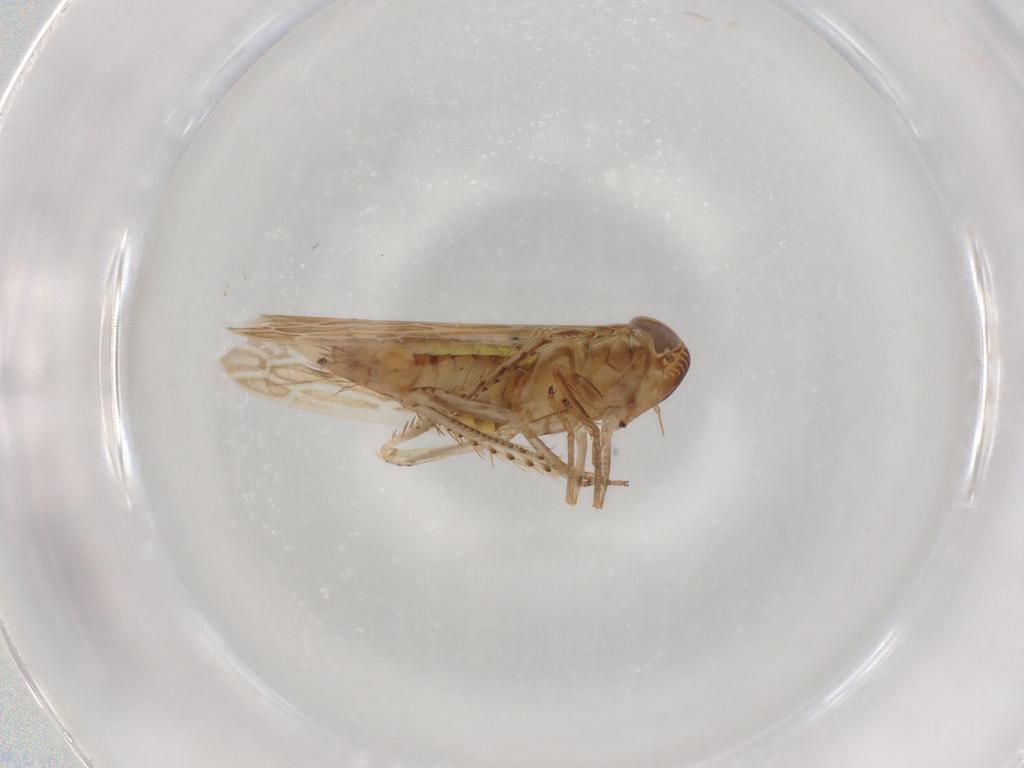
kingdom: Animalia
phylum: Arthropoda
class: Insecta
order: Hemiptera
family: Cicadellidae
